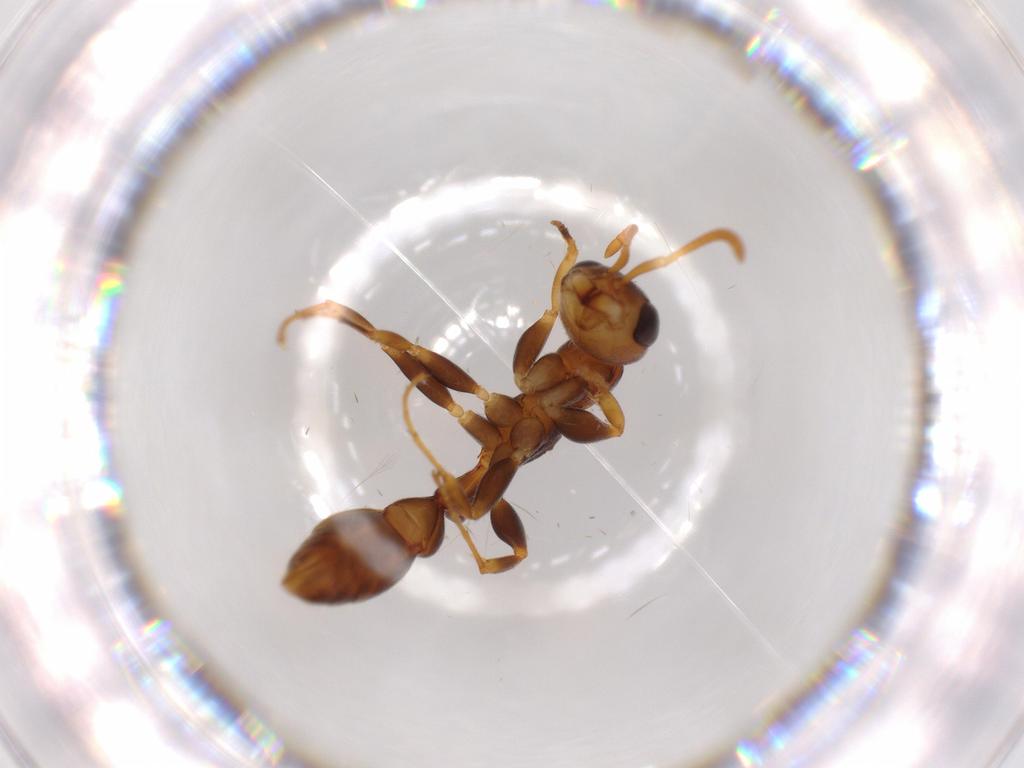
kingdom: Animalia
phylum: Arthropoda
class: Insecta
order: Hymenoptera
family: Formicidae
